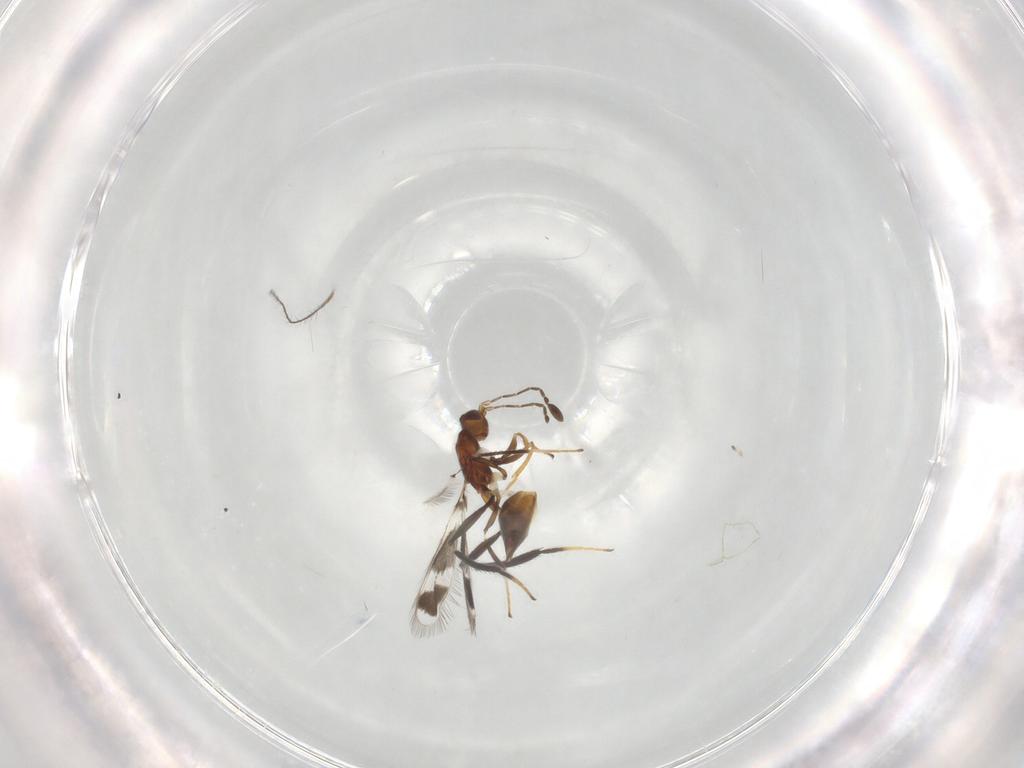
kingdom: Animalia
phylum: Arthropoda
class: Insecta
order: Hymenoptera
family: Mymaridae
